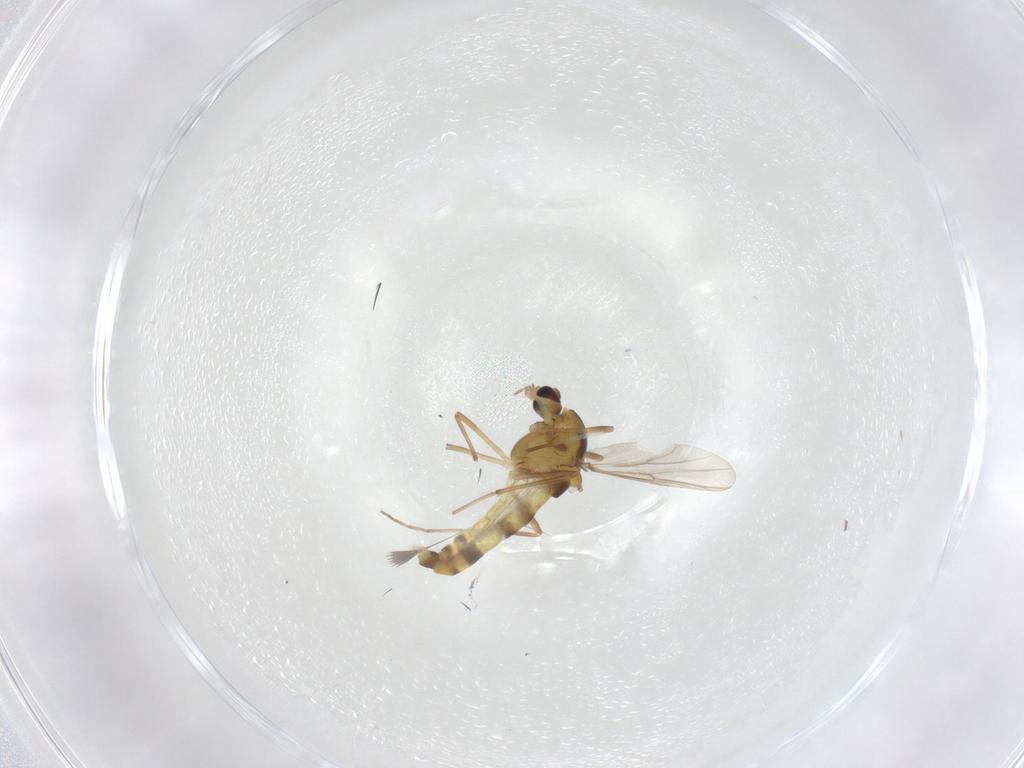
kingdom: Animalia
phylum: Arthropoda
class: Insecta
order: Diptera
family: Chironomidae
